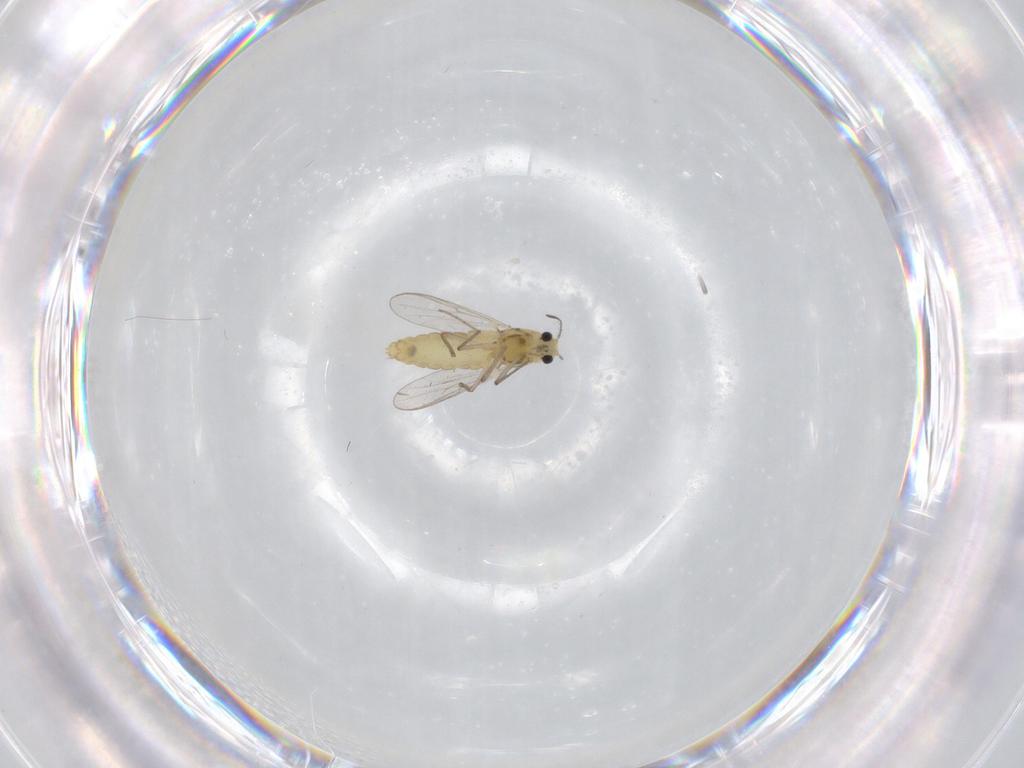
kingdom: Animalia
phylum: Arthropoda
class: Insecta
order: Diptera
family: Chironomidae
